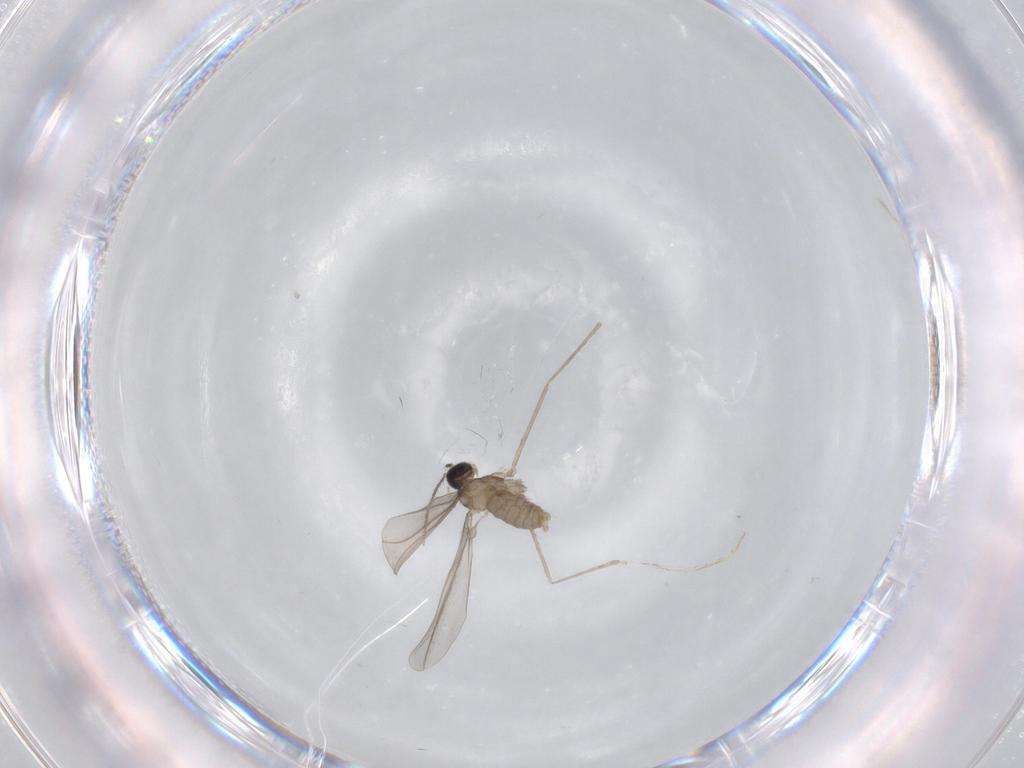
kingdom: Animalia
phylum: Arthropoda
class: Insecta
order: Diptera
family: Cecidomyiidae
